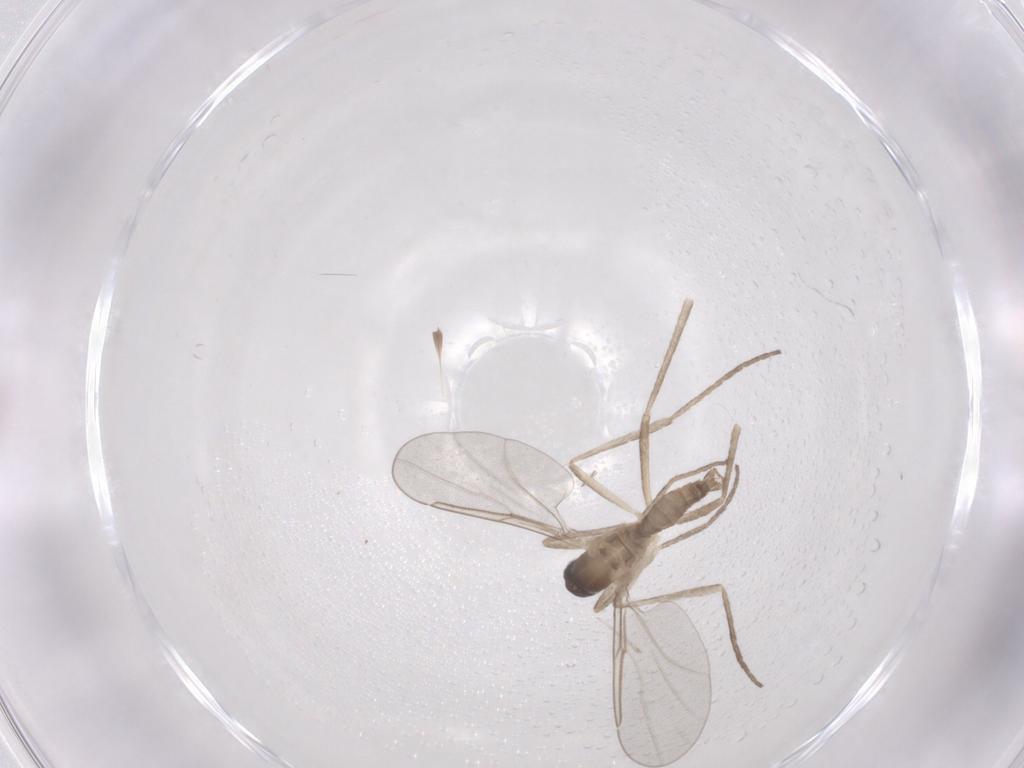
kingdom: Animalia
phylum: Arthropoda
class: Insecta
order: Diptera
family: Cecidomyiidae
